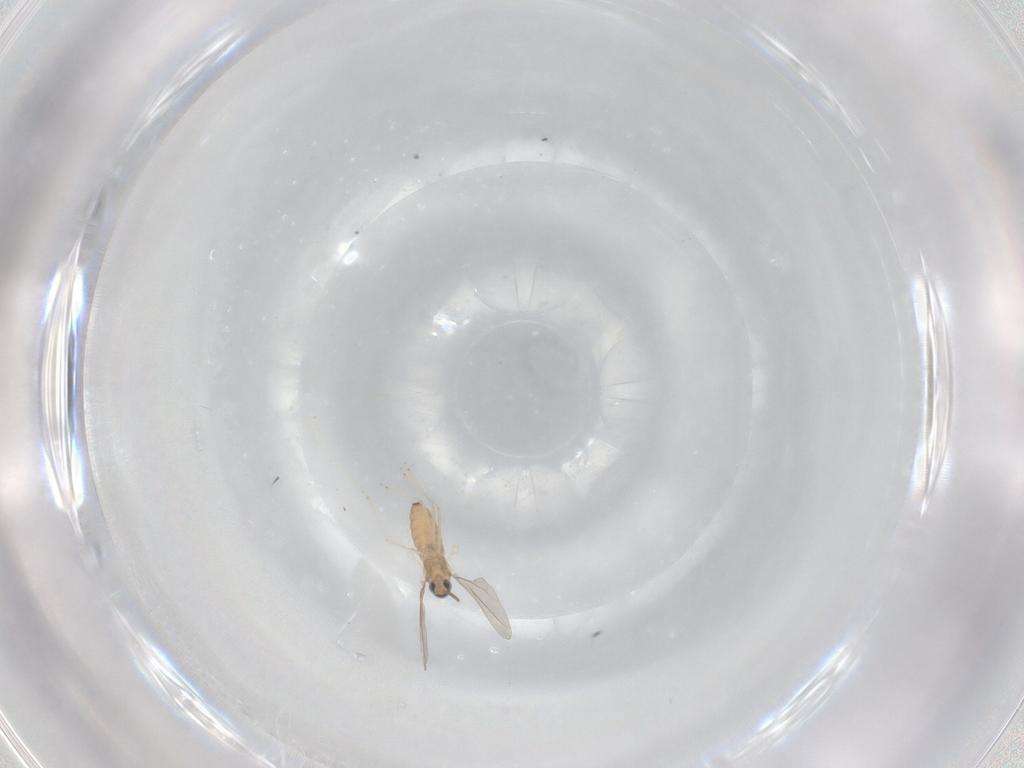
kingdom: Animalia
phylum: Arthropoda
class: Insecta
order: Diptera
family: Cecidomyiidae
